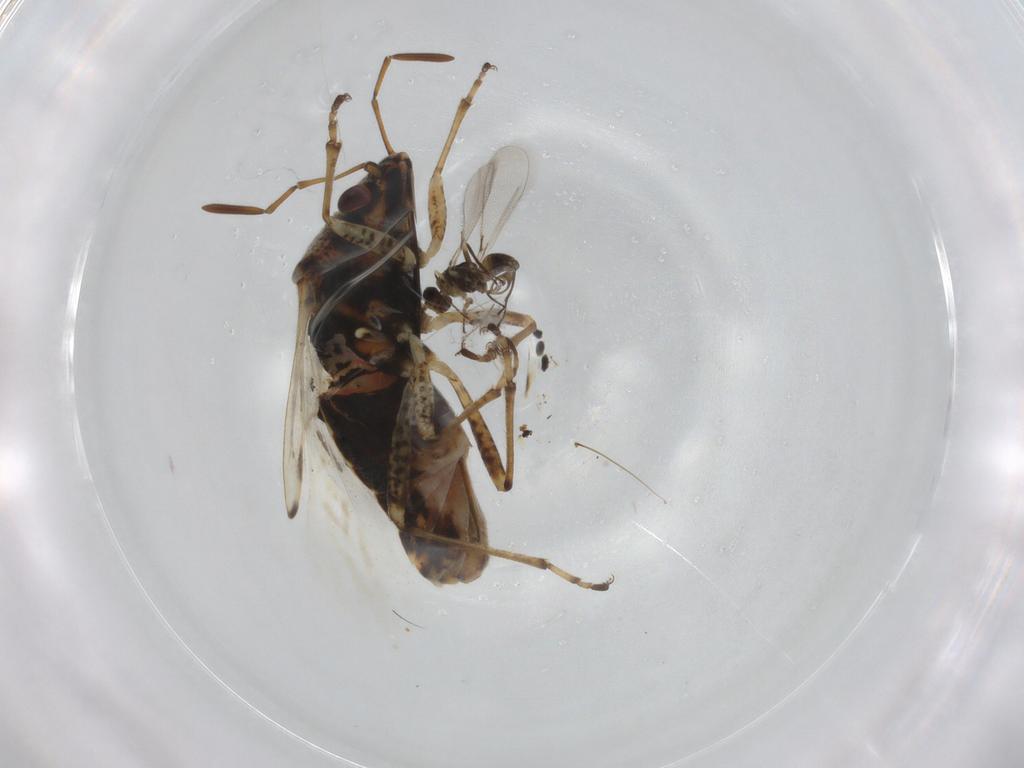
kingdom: Animalia
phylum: Arthropoda
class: Insecta
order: Hemiptera
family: Lygaeidae
